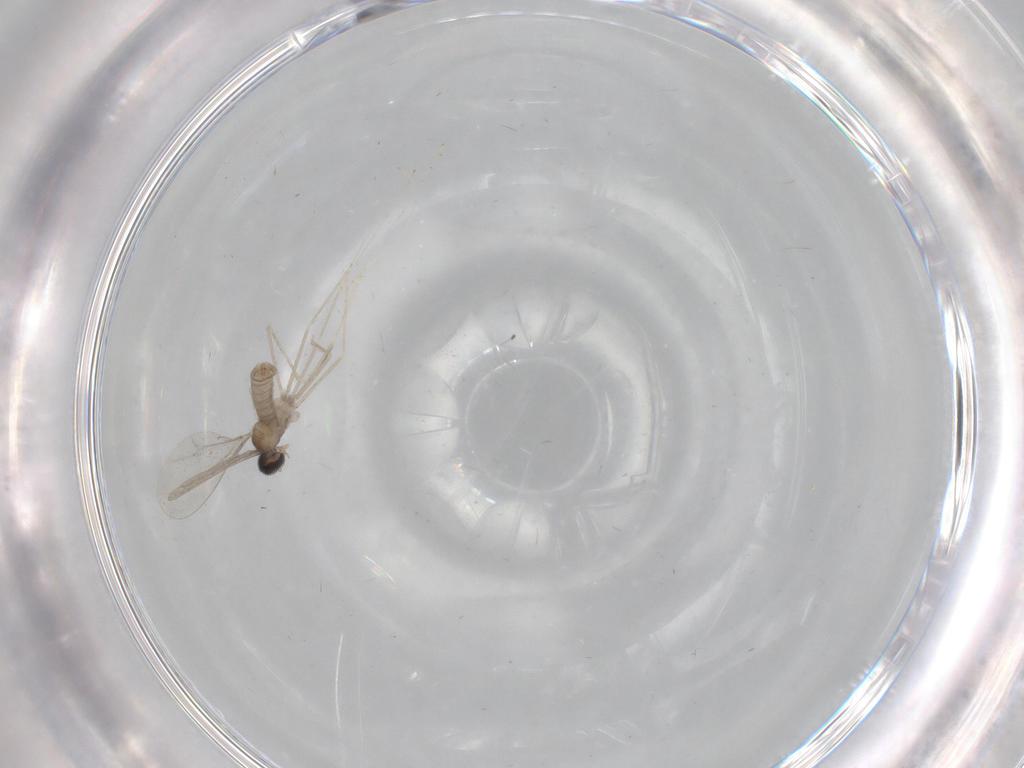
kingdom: Animalia
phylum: Arthropoda
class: Insecta
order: Diptera
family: Cecidomyiidae
